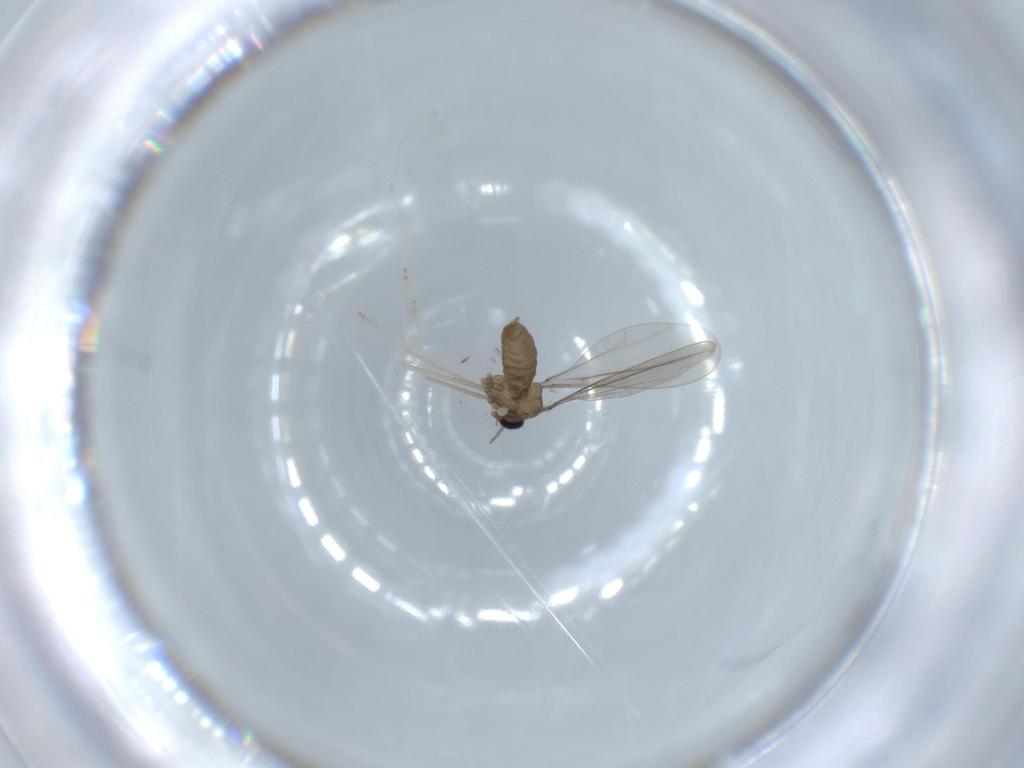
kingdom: Animalia
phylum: Arthropoda
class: Insecta
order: Diptera
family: Cecidomyiidae
